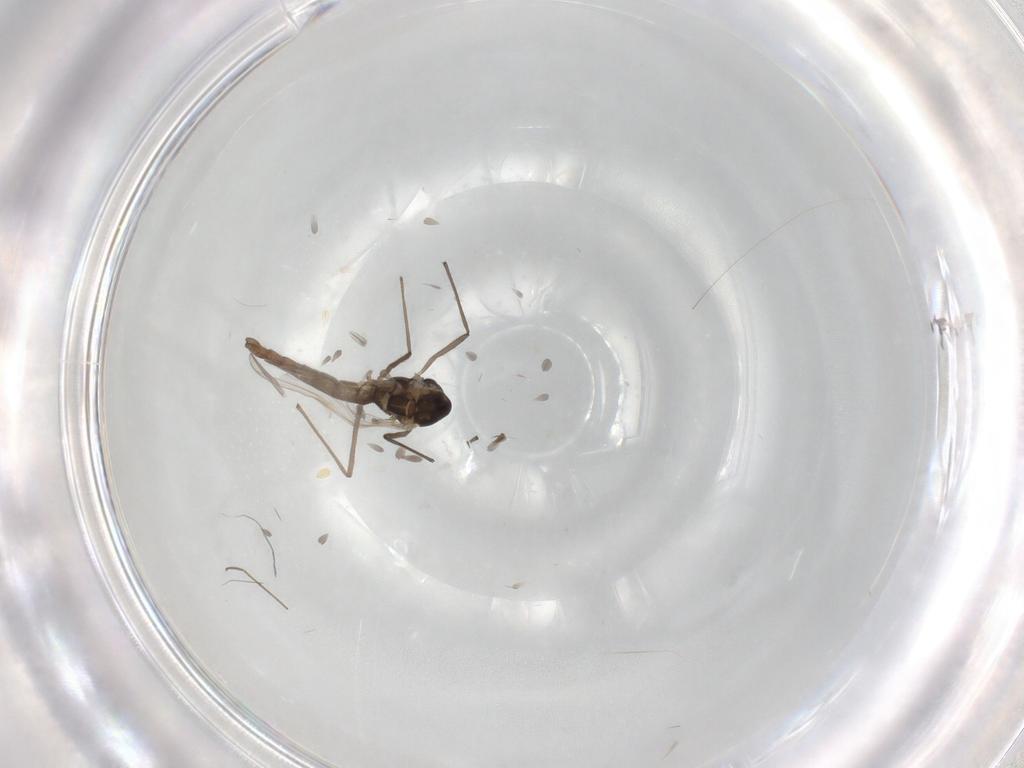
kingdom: Animalia
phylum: Arthropoda
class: Insecta
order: Diptera
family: Chironomidae
